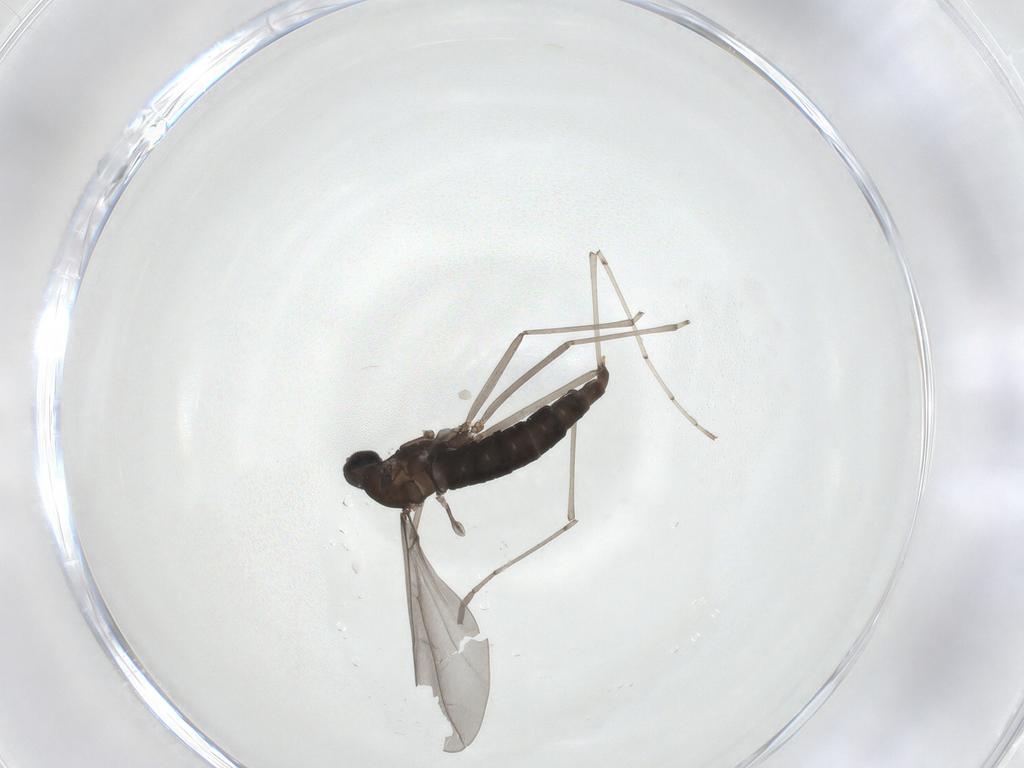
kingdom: Animalia
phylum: Arthropoda
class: Insecta
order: Diptera
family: Cecidomyiidae
